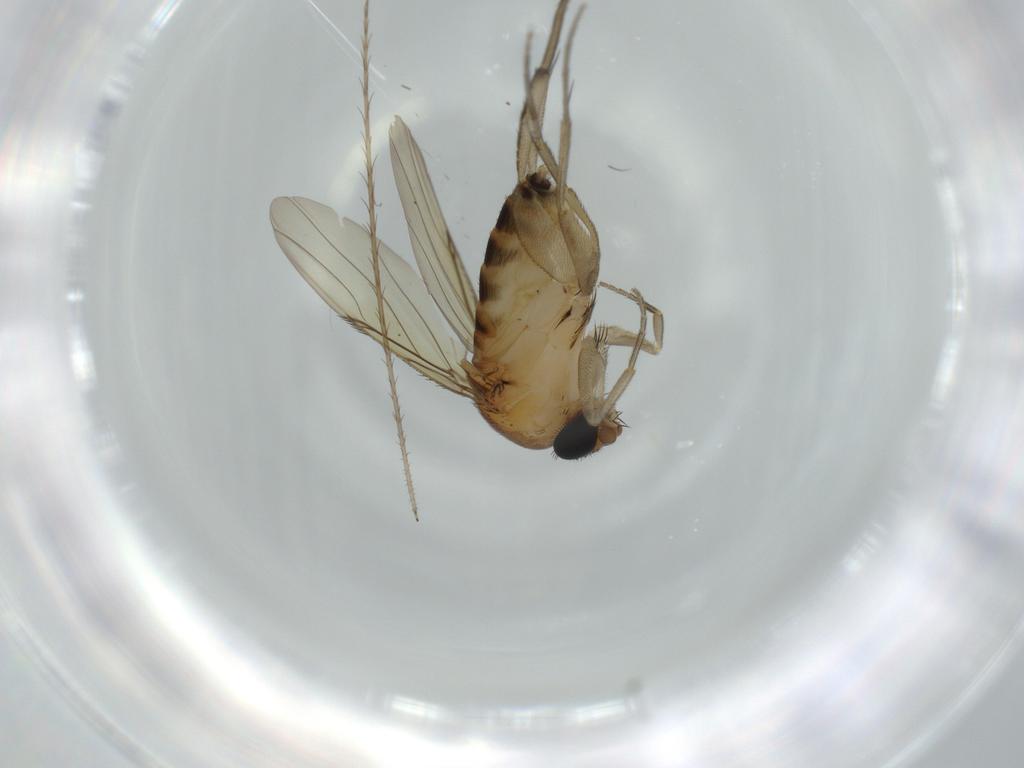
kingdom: Animalia
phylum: Arthropoda
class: Insecta
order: Diptera
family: Phoridae
